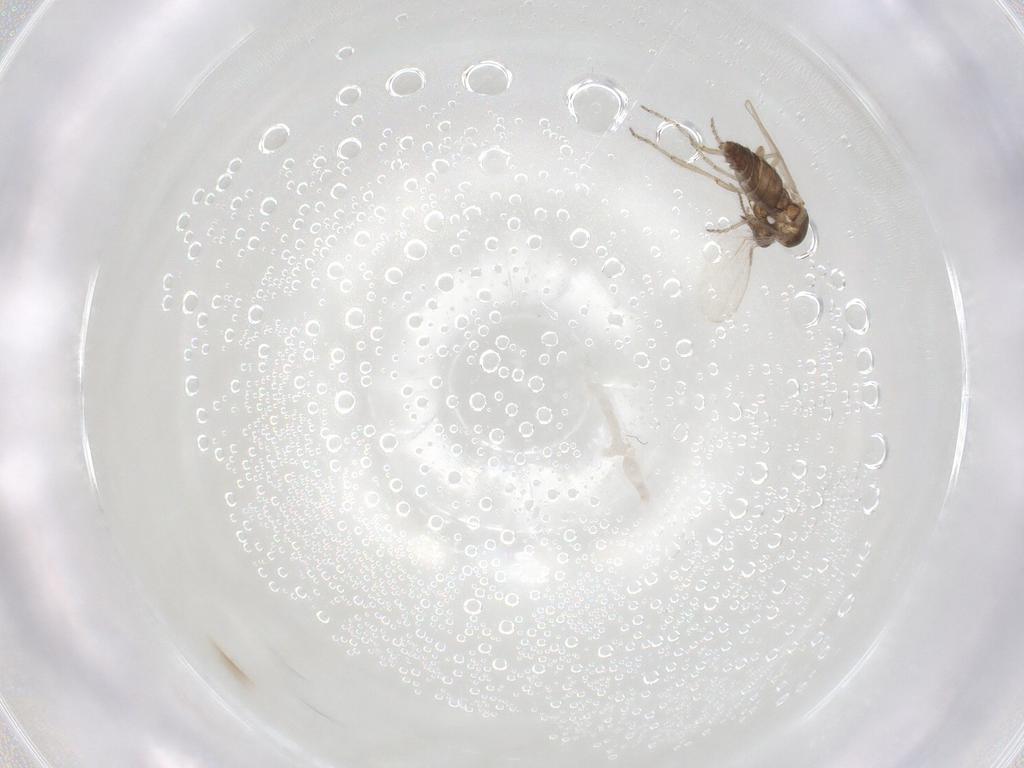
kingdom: Animalia
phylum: Arthropoda
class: Insecta
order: Diptera
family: Ceratopogonidae
